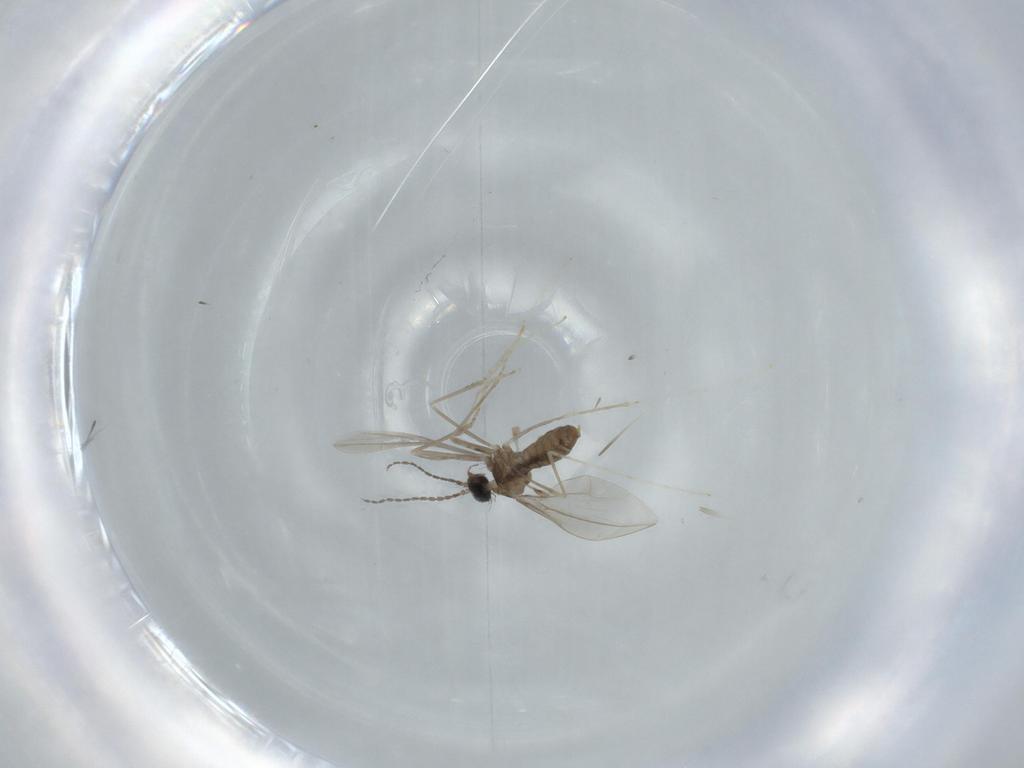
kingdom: Animalia
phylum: Arthropoda
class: Insecta
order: Diptera
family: Cecidomyiidae
